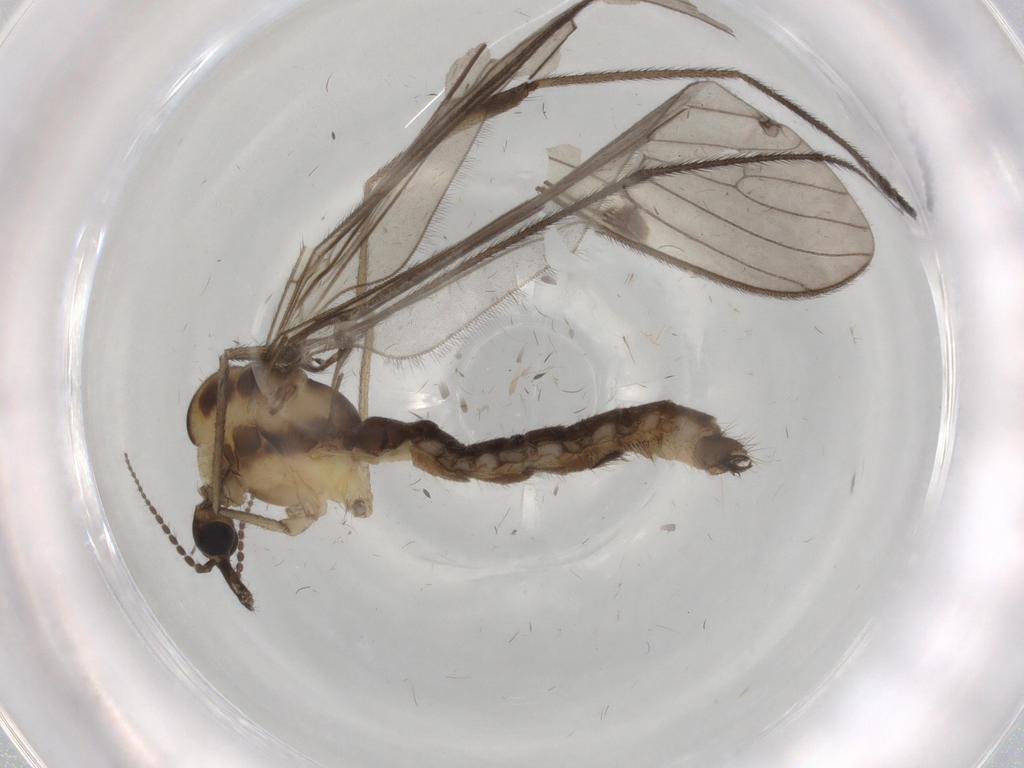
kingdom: Animalia
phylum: Arthropoda
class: Insecta
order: Diptera
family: Limoniidae
